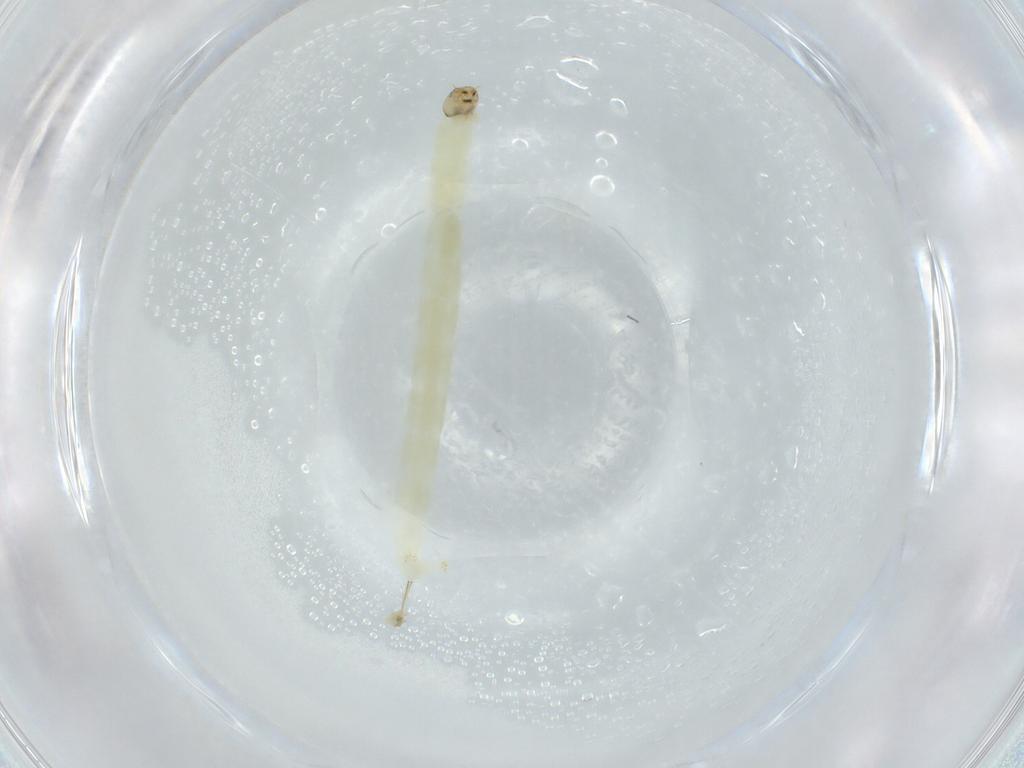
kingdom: Animalia
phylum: Arthropoda
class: Insecta
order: Diptera
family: Chironomidae
